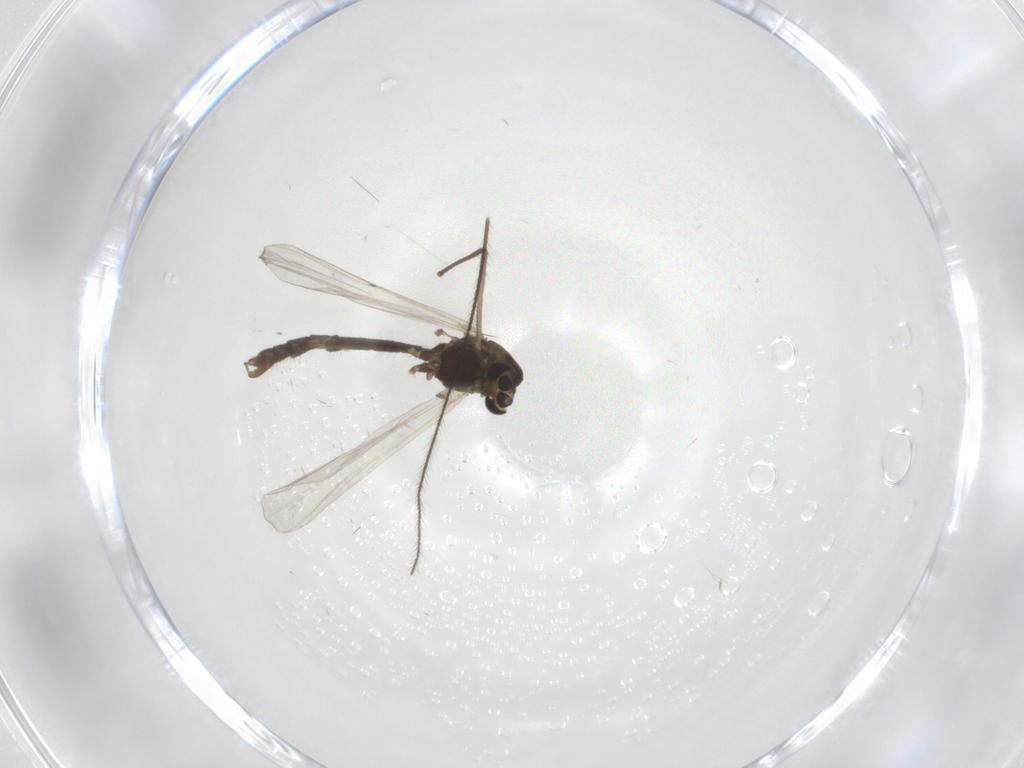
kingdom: Animalia
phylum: Arthropoda
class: Insecta
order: Diptera
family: Chironomidae
